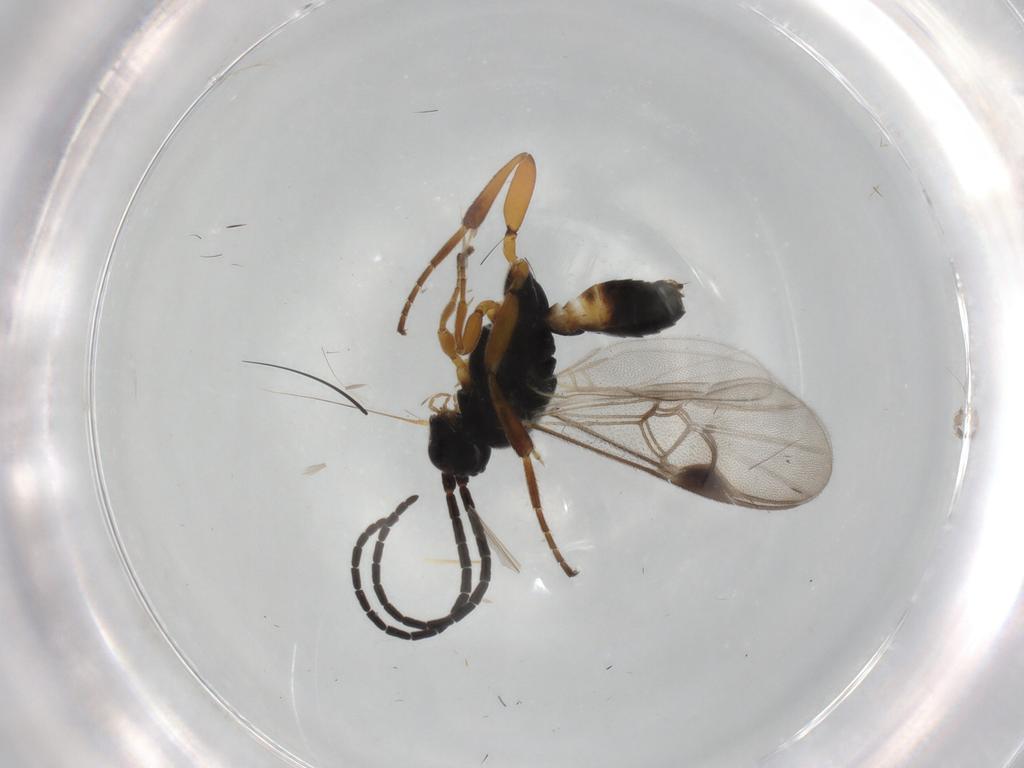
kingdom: Animalia
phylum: Arthropoda
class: Insecta
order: Hymenoptera
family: Braconidae
